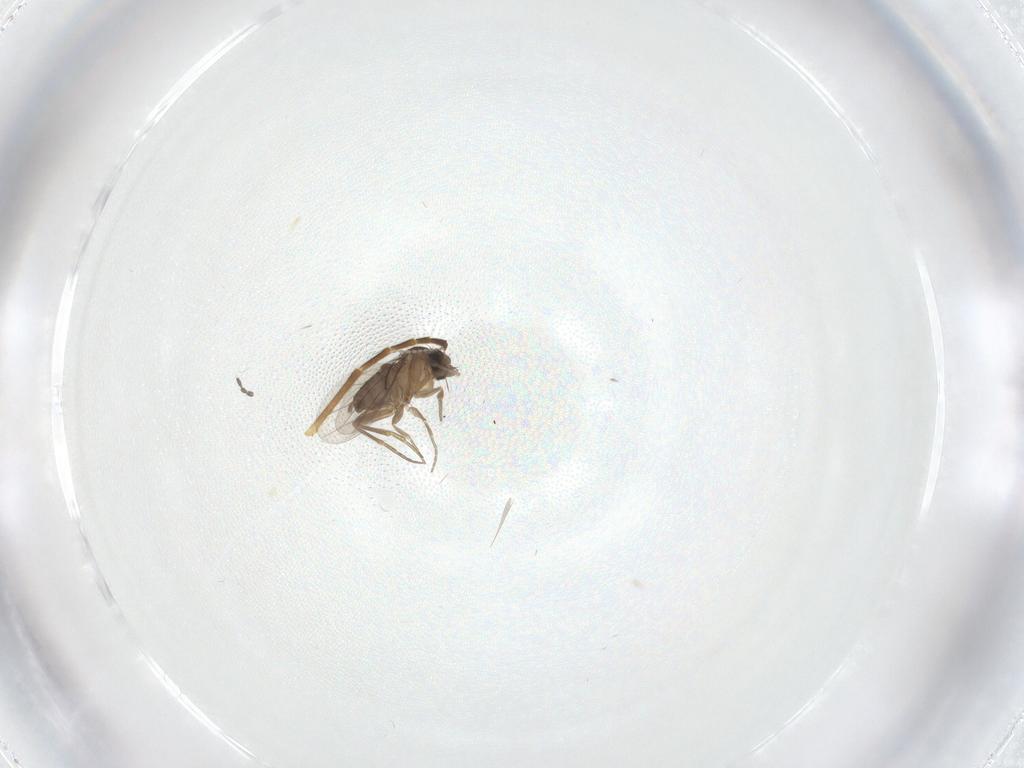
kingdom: Animalia
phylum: Arthropoda
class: Insecta
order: Diptera
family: Phoridae
